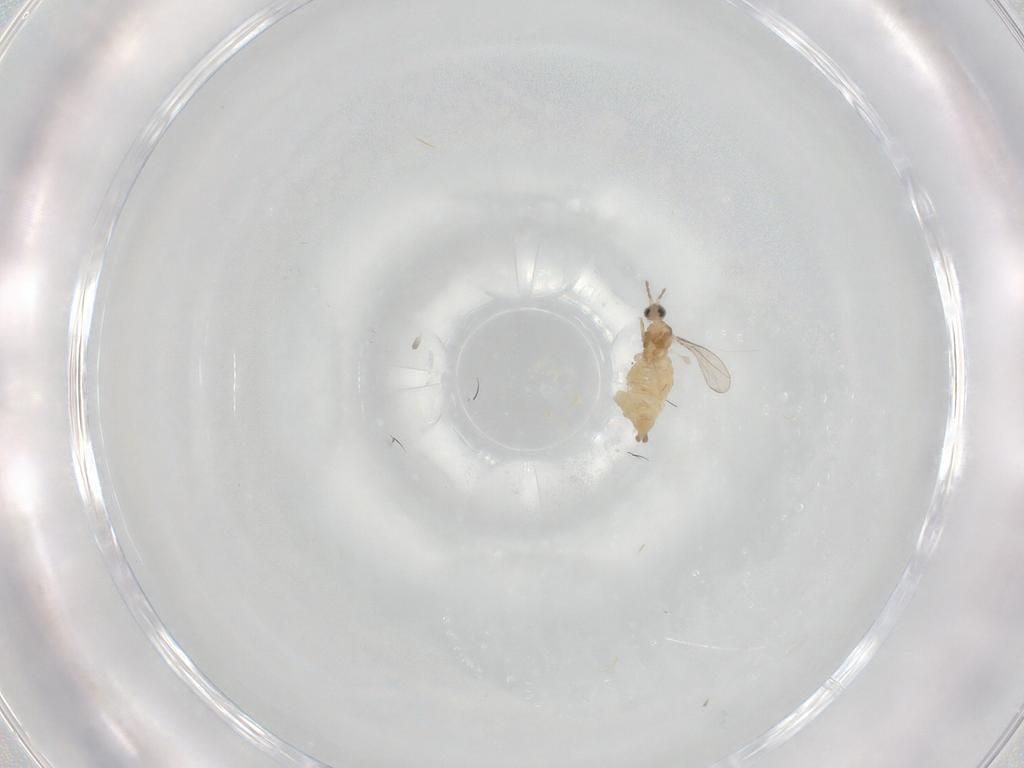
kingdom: Animalia
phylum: Arthropoda
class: Insecta
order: Diptera
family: Cecidomyiidae
